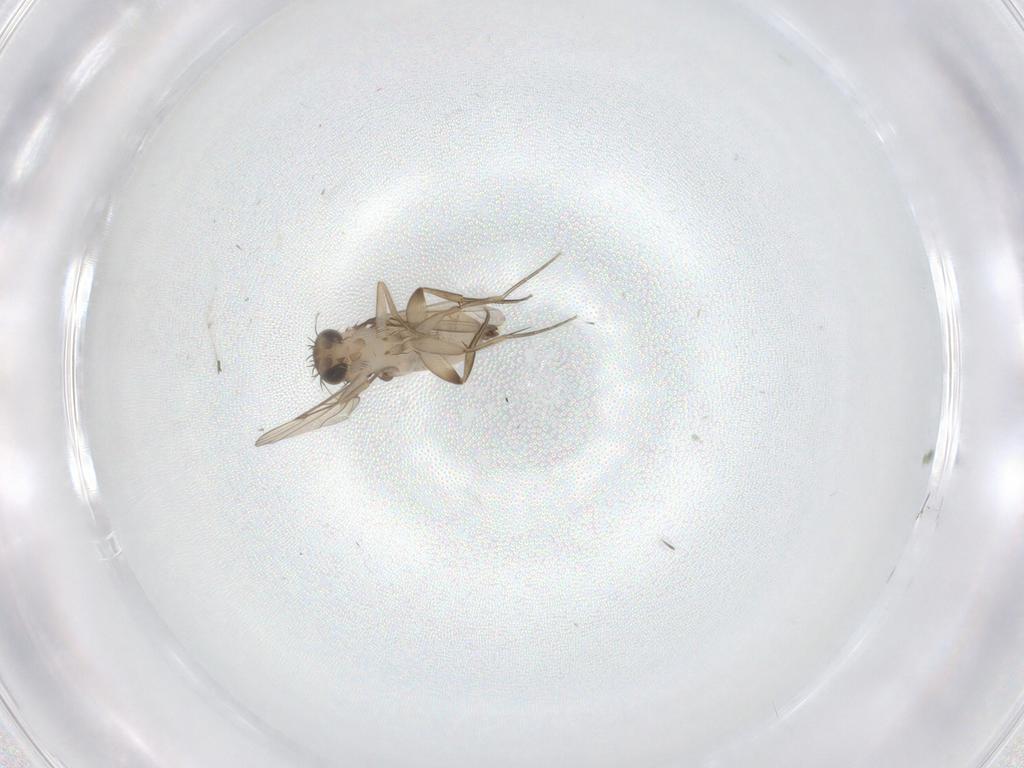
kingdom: Animalia
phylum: Arthropoda
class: Insecta
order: Diptera
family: Phoridae
